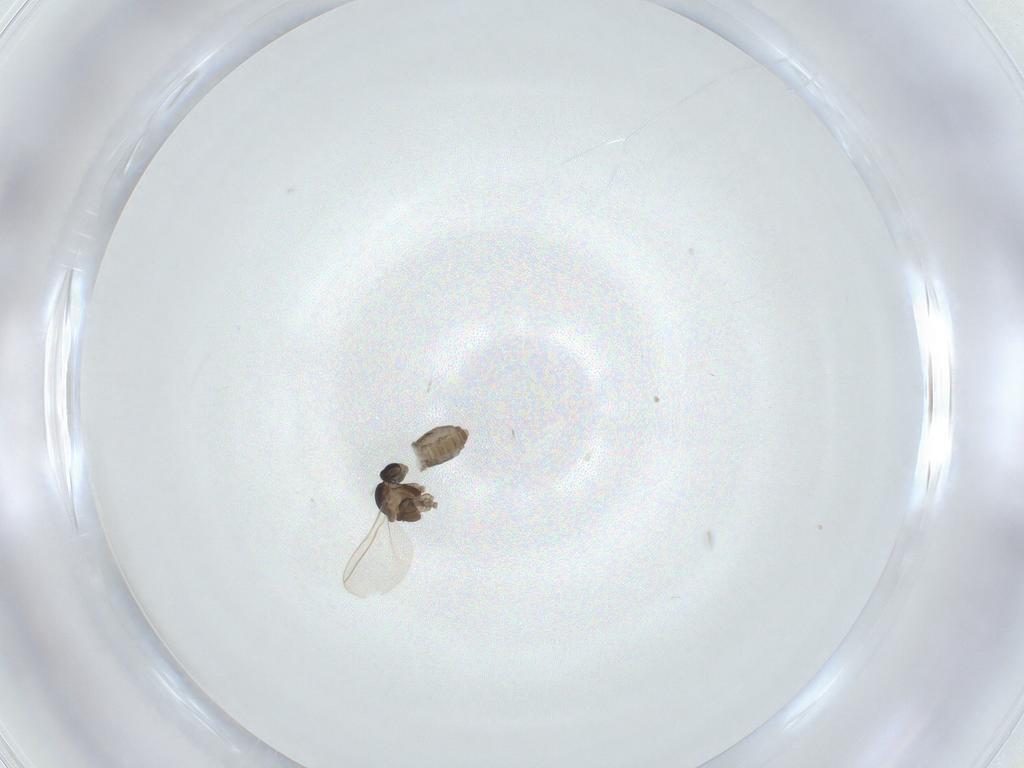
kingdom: Animalia
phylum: Arthropoda
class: Insecta
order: Diptera
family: Cecidomyiidae
